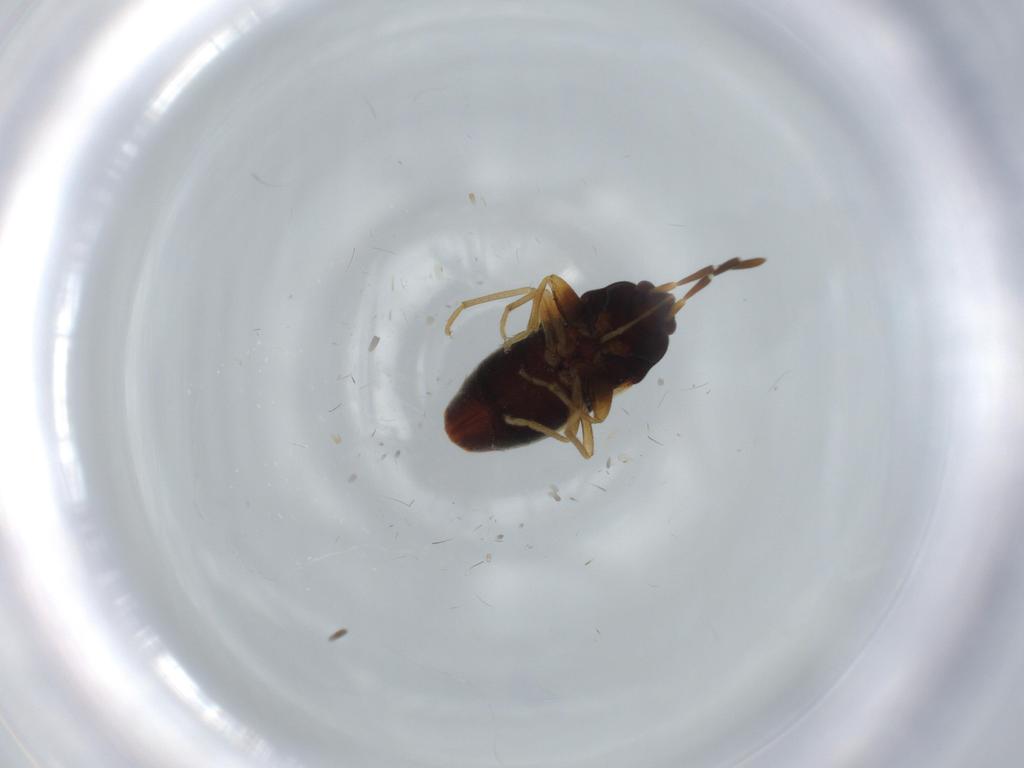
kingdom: Animalia
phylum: Arthropoda
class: Insecta
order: Hemiptera
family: Rhyparochromidae
